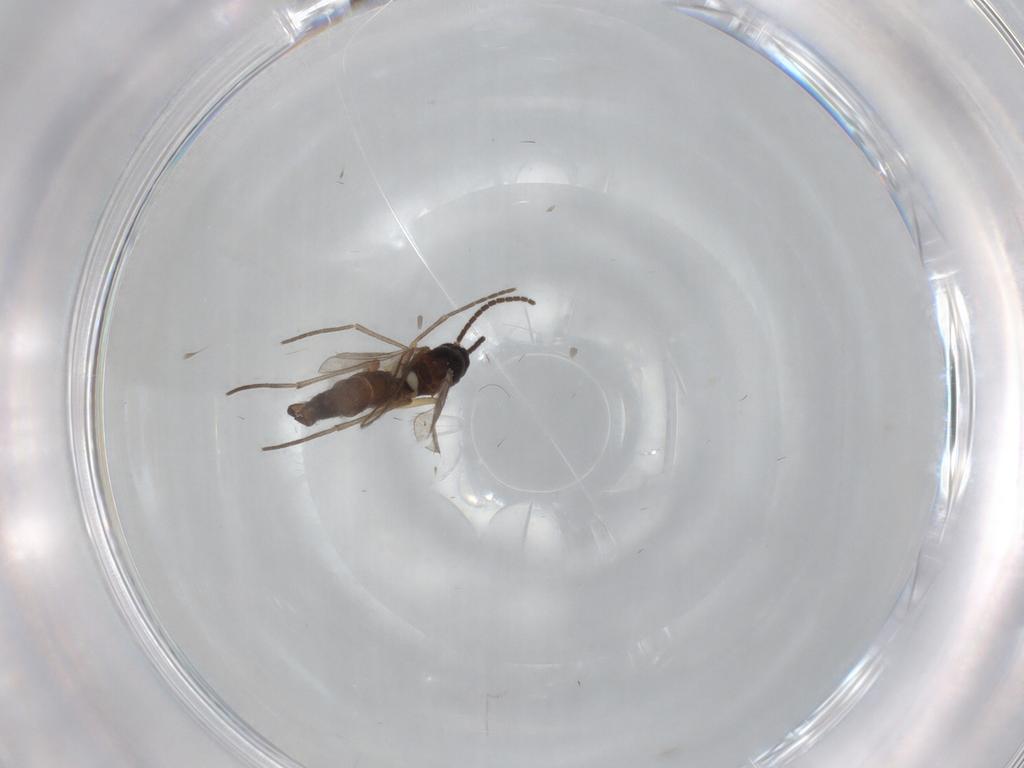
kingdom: Animalia
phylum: Arthropoda
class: Insecta
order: Diptera
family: Sciaridae
